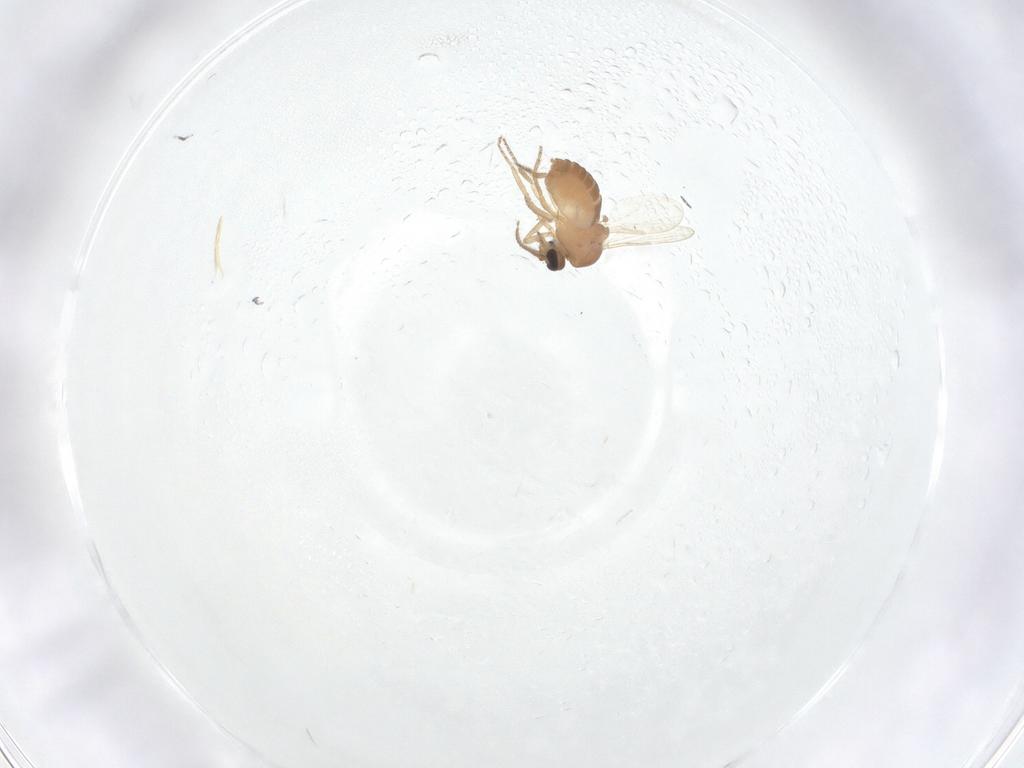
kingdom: Animalia
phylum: Arthropoda
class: Insecta
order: Diptera
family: Ceratopogonidae
